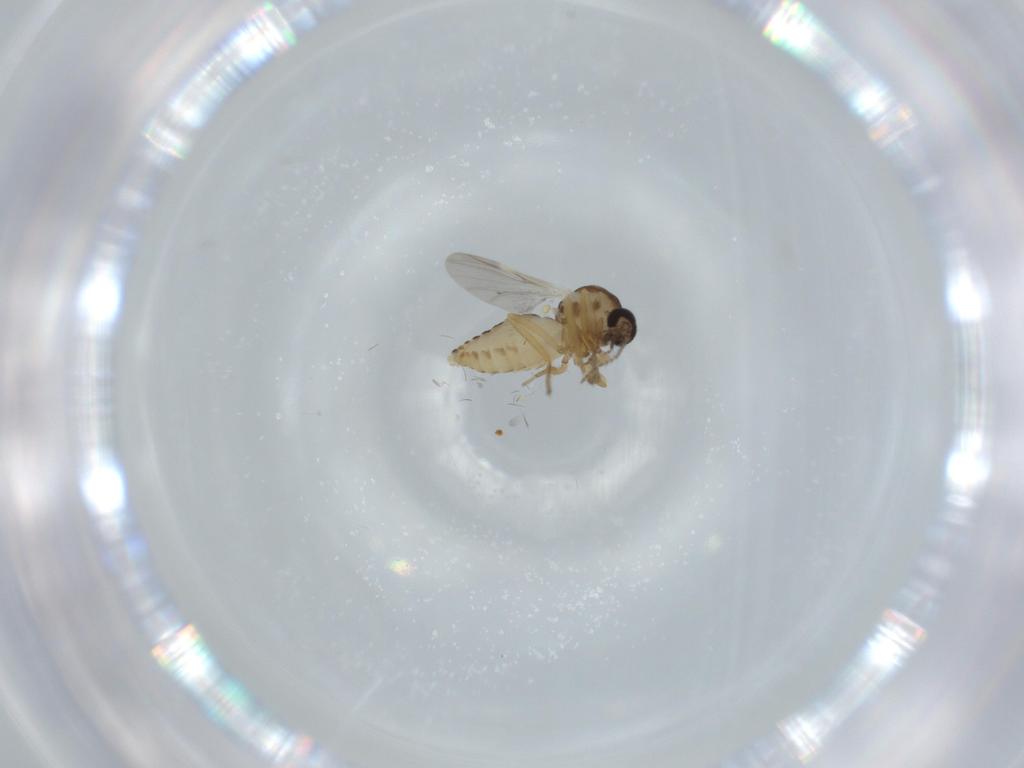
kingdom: Animalia
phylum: Arthropoda
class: Insecta
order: Diptera
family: Ceratopogonidae
